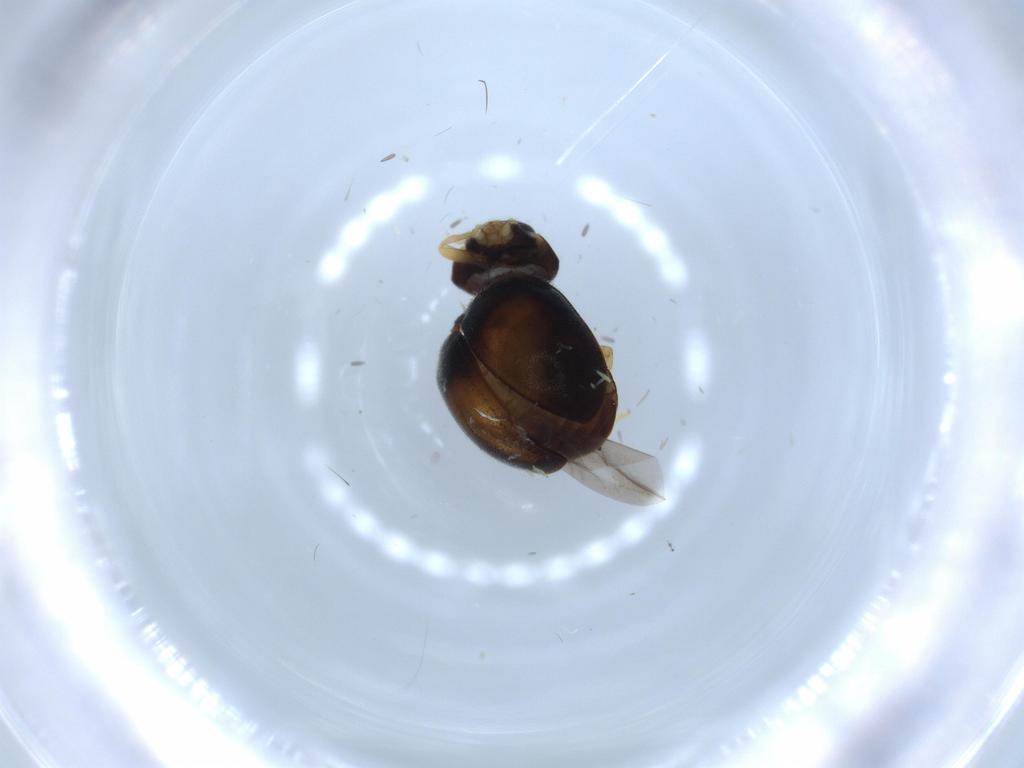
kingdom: Animalia
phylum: Arthropoda
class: Insecta
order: Coleoptera
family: Coccinellidae
